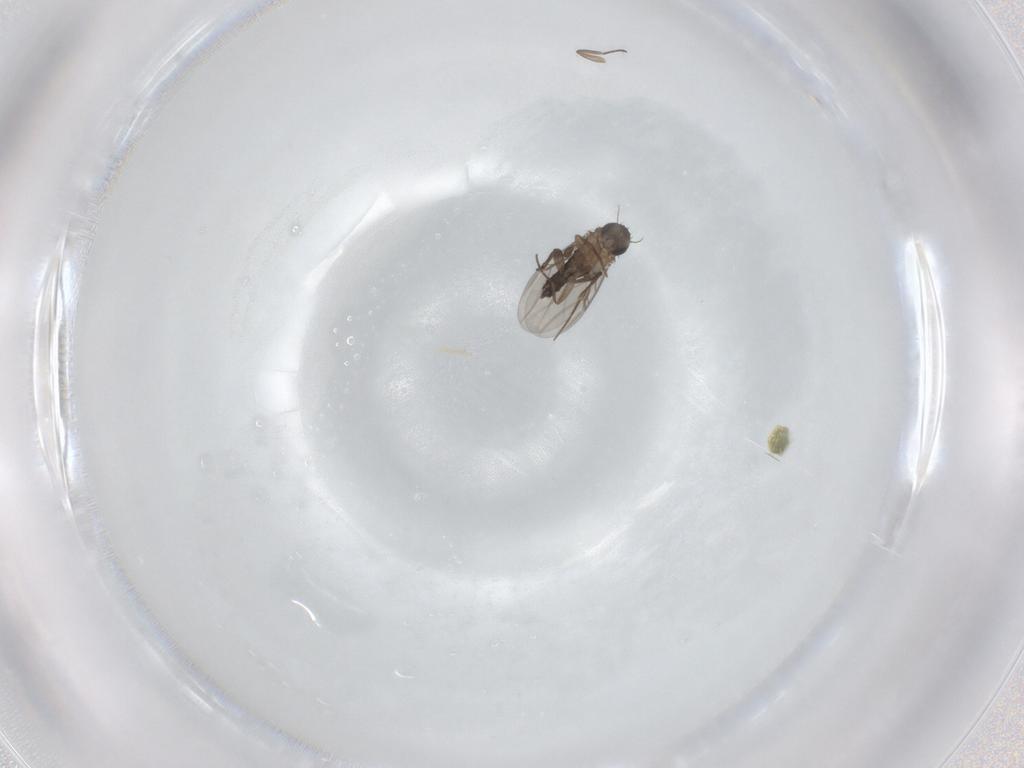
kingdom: Animalia
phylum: Arthropoda
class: Insecta
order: Diptera
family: Phoridae
